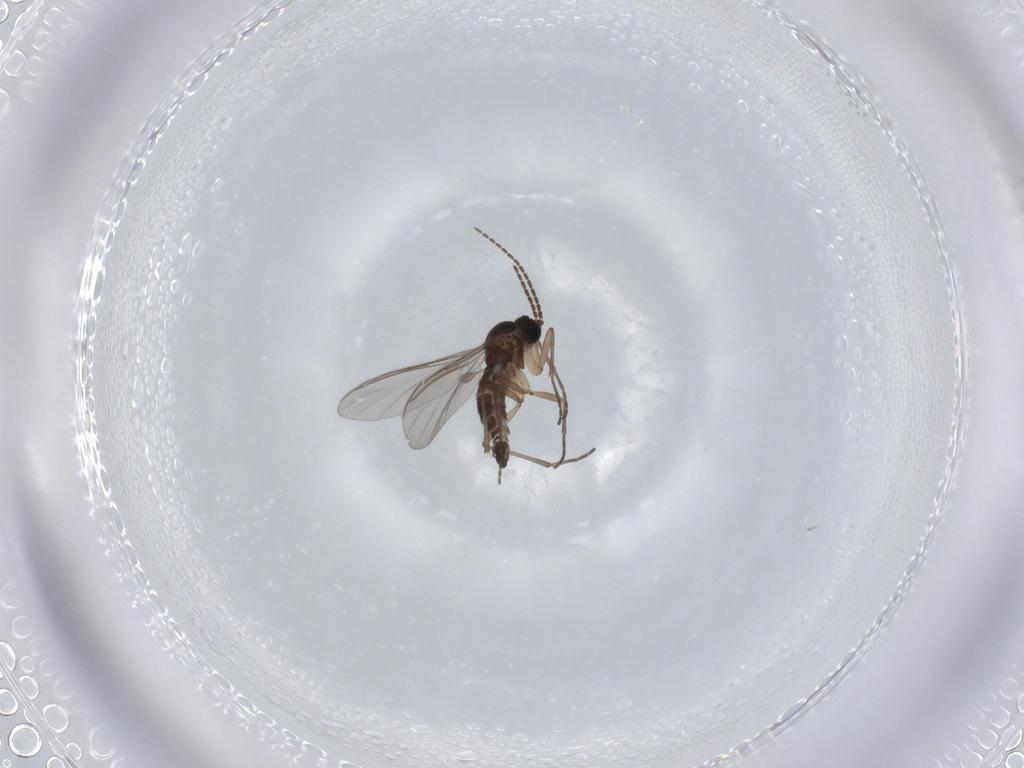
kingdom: Animalia
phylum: Arthropoda
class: Insecta
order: Diptera
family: Sciaridae
